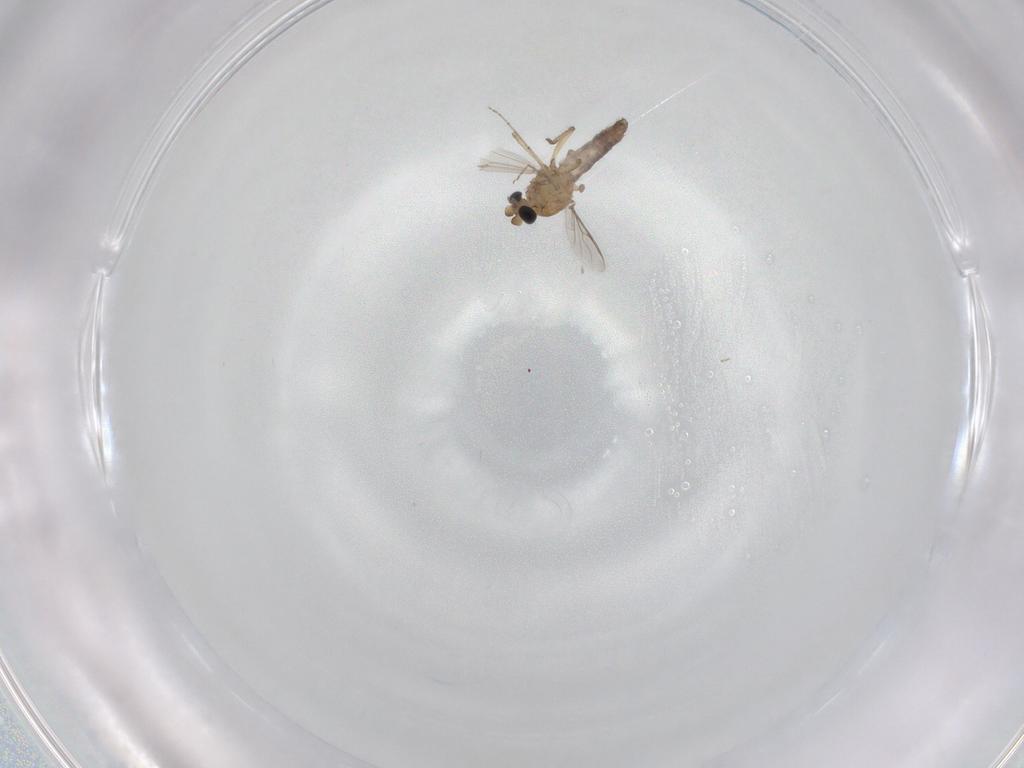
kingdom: Animalia
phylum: Arthropoda
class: Insecta
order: Diptera
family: Ceratopogonidae
